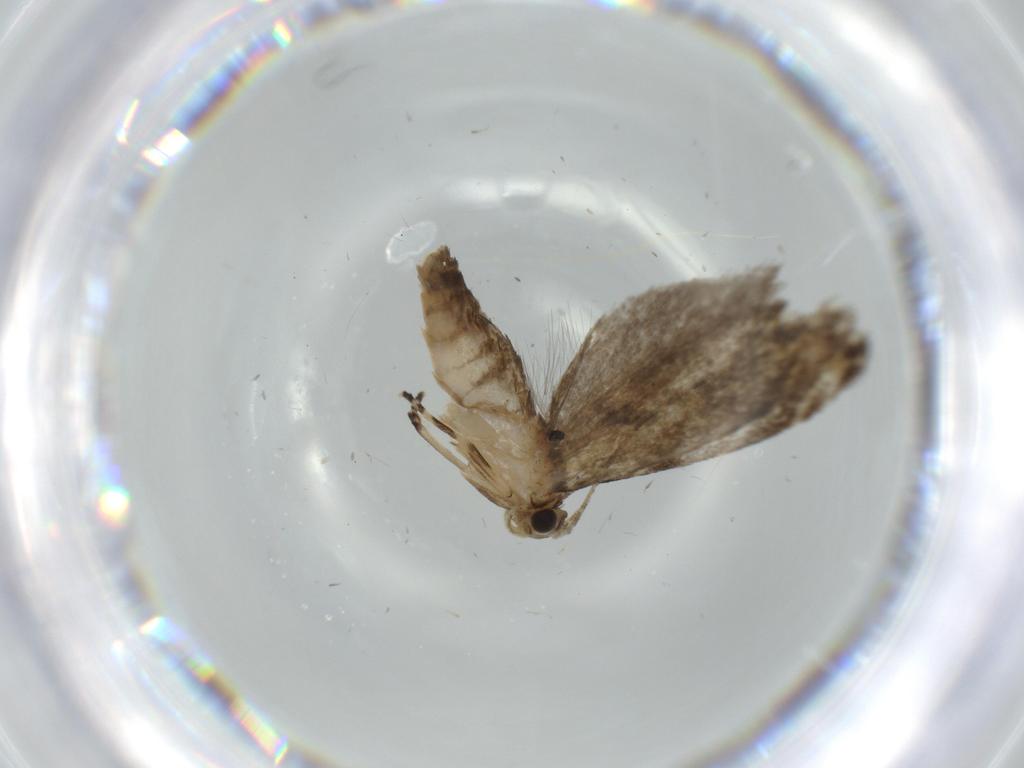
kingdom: Animalia
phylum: Arthropoda
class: Insecta
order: Lepidoptera
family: Tineidae
